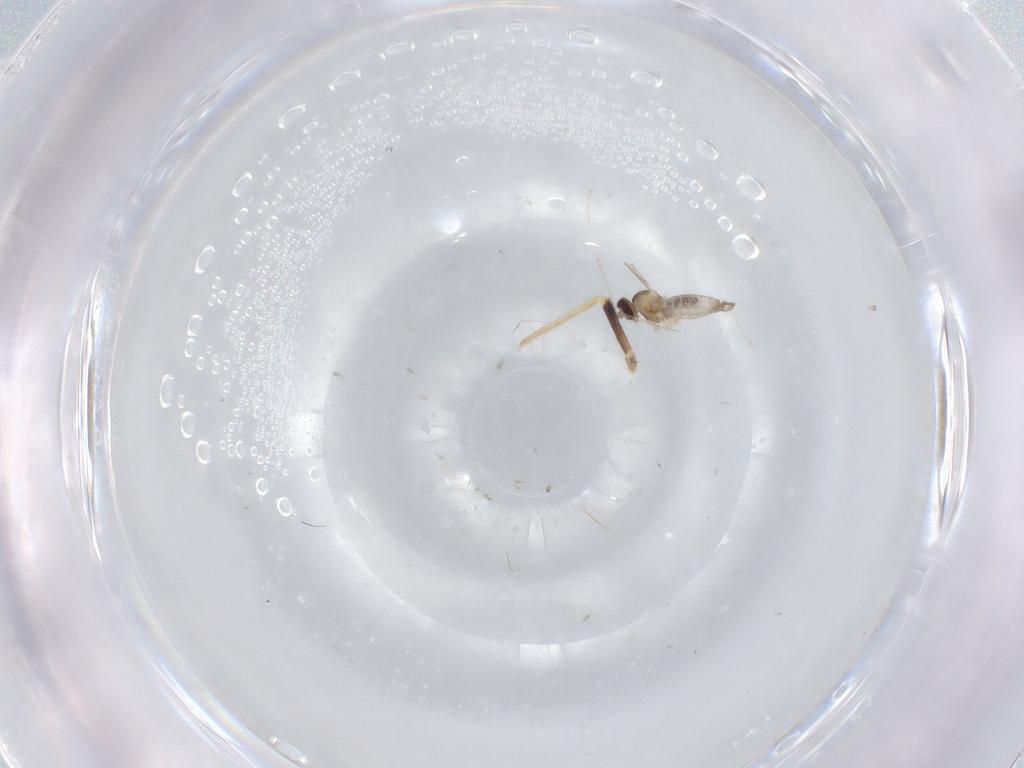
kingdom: Animalia
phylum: Arthropoda
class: Insecta
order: Diptera
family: Cecidomyiidae
